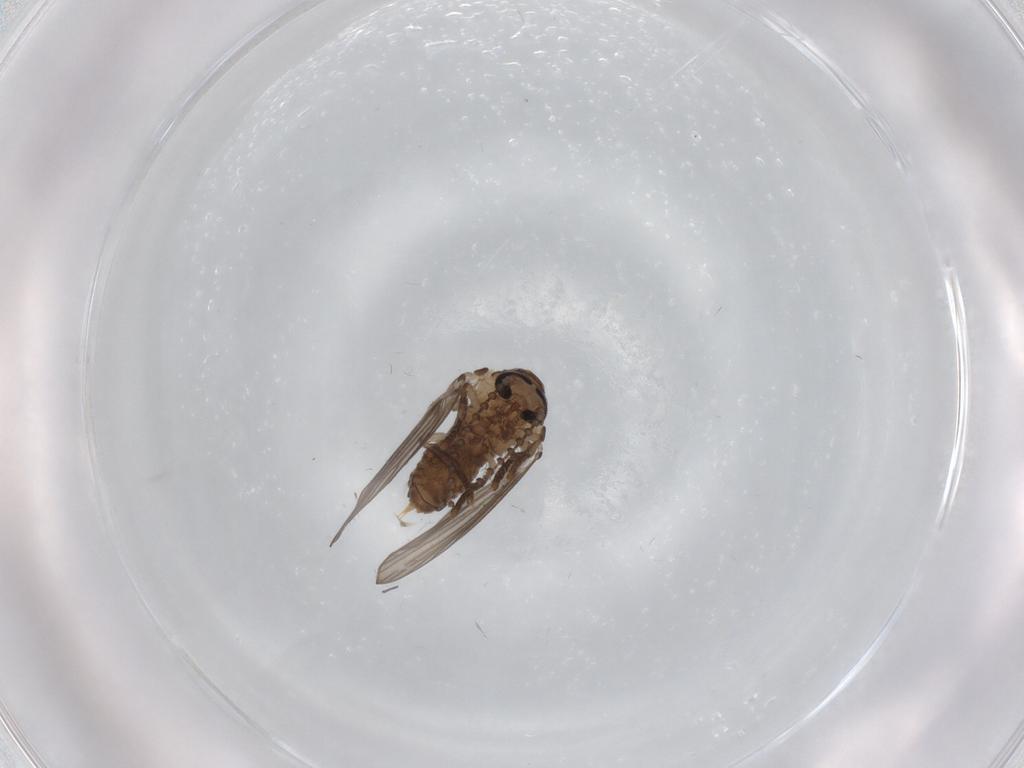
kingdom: Animalia
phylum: Arthropoda
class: Insecta
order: Diptera
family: Psychodidae
